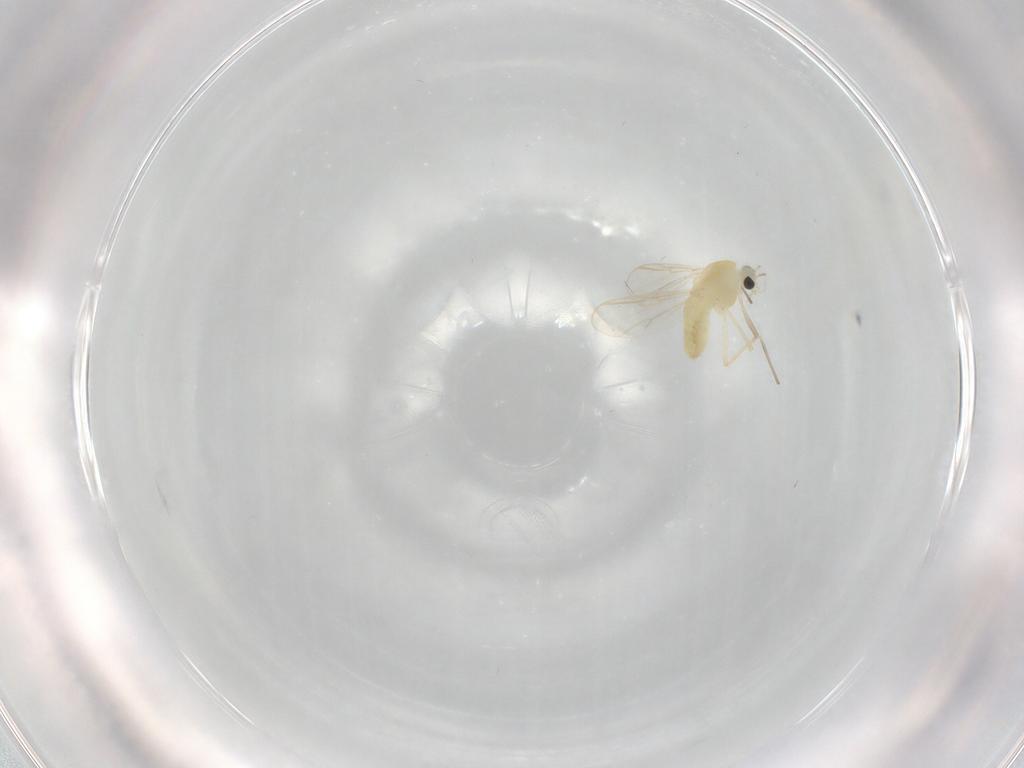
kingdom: Animalia
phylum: Arthropoda
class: Insecta
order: Diptera
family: Chironomidae
